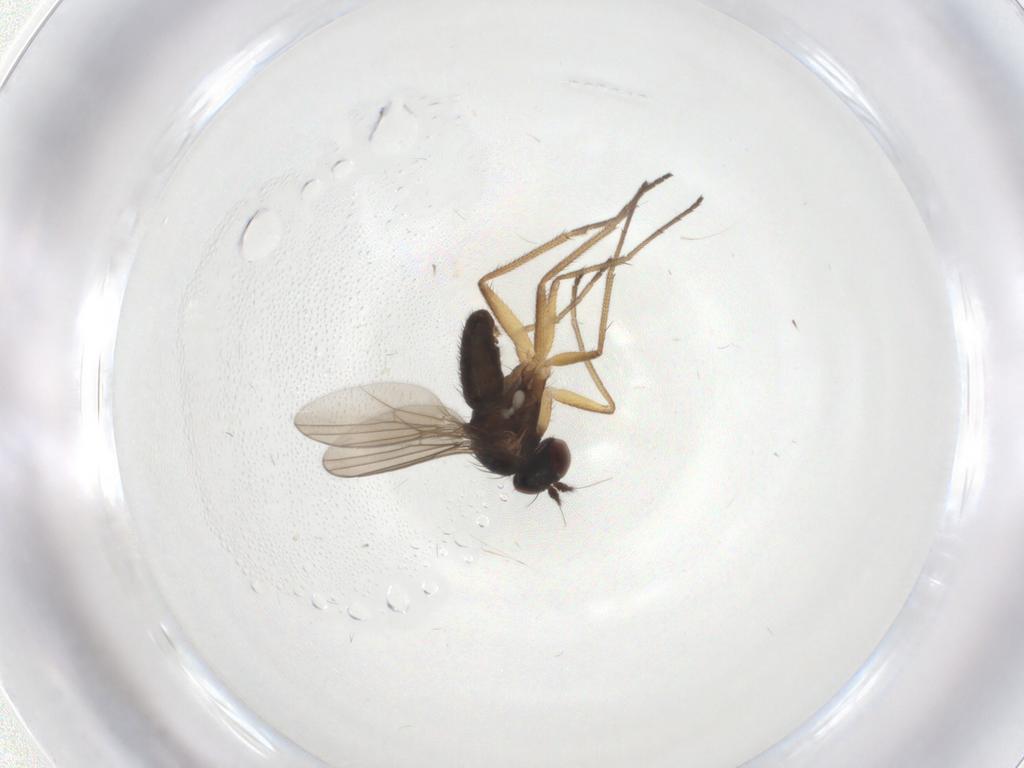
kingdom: Animalia
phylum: Arthropoda
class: Insecta
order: Diptera
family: Dolichopodidae
